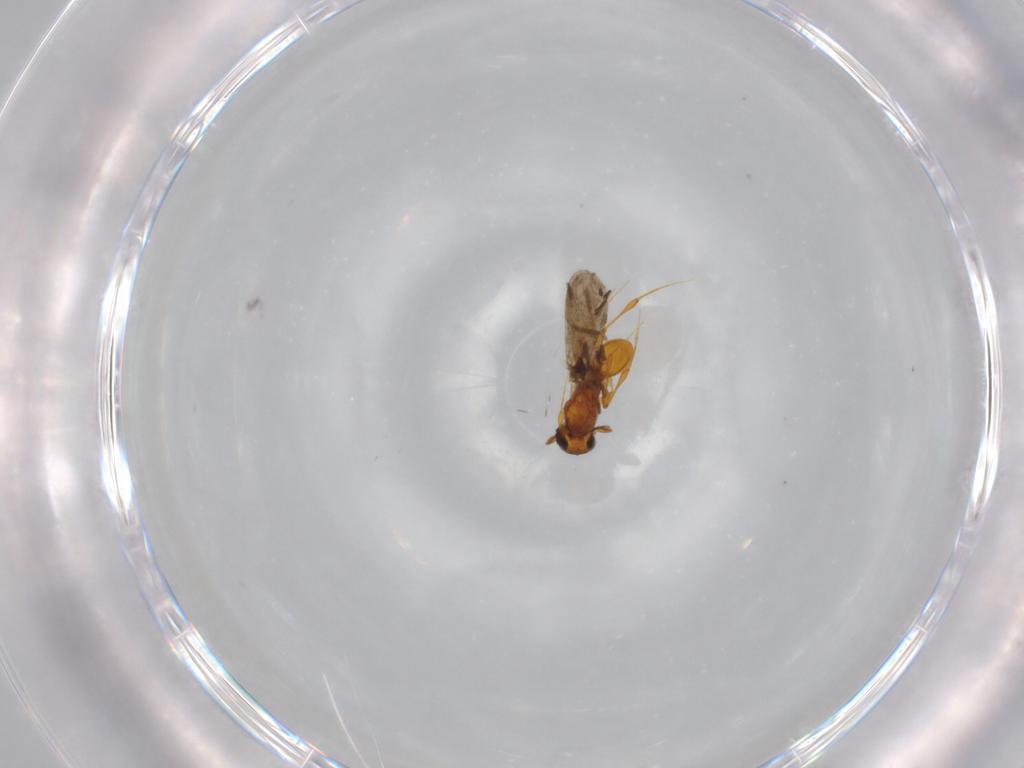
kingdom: Animalia
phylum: Arthropoda
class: Insecta
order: Hymenoptera
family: Platygastridae
